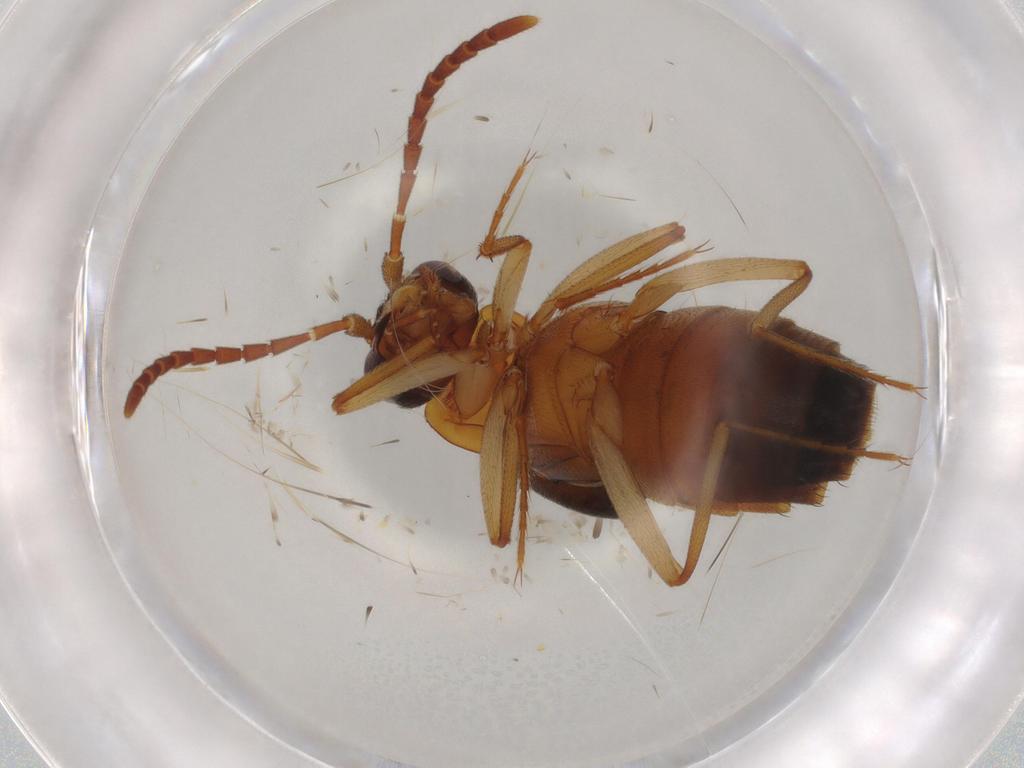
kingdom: Animalia
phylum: Arthropoda
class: Insecta
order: Coleoptera
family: Staphylinidae
